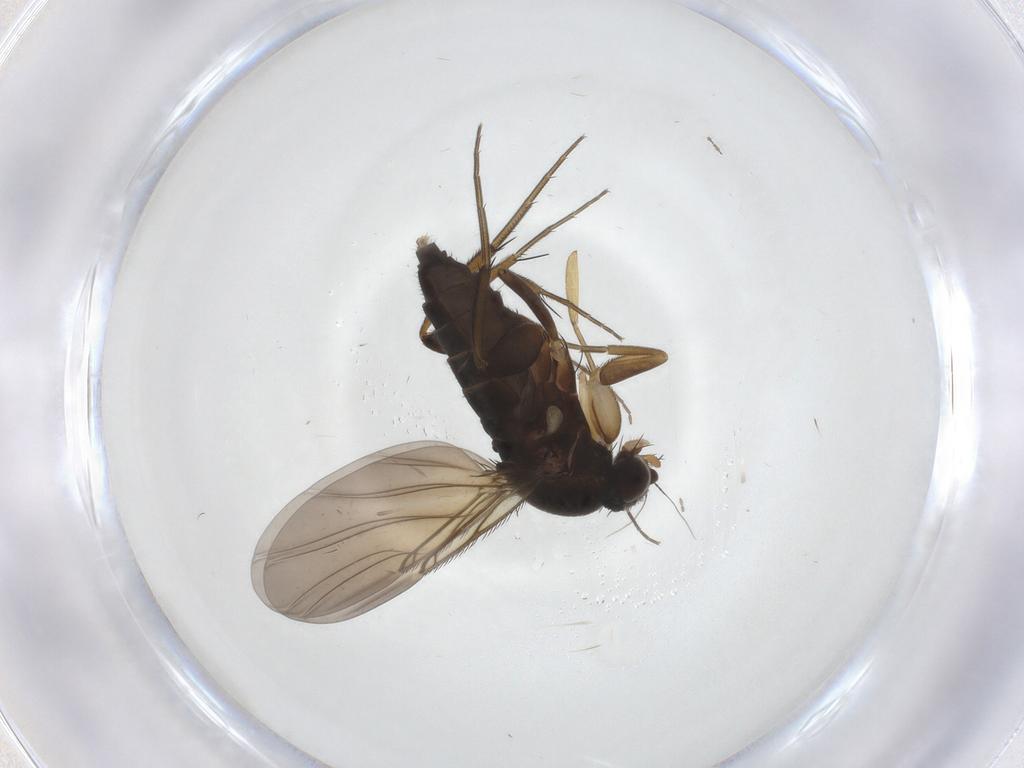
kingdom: Animalia
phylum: Arthropoda
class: Insecta
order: Diptera
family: Phoridae
